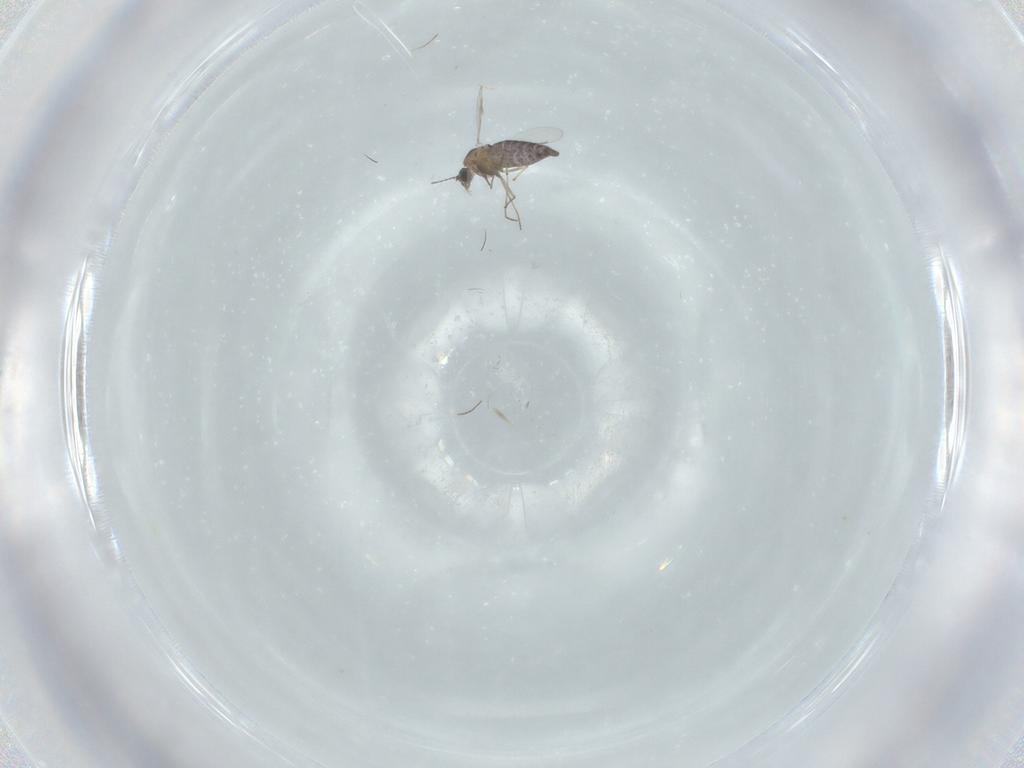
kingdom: Animalia
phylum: Arthropoda
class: Insecta
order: Diptera
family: Chironomidae
